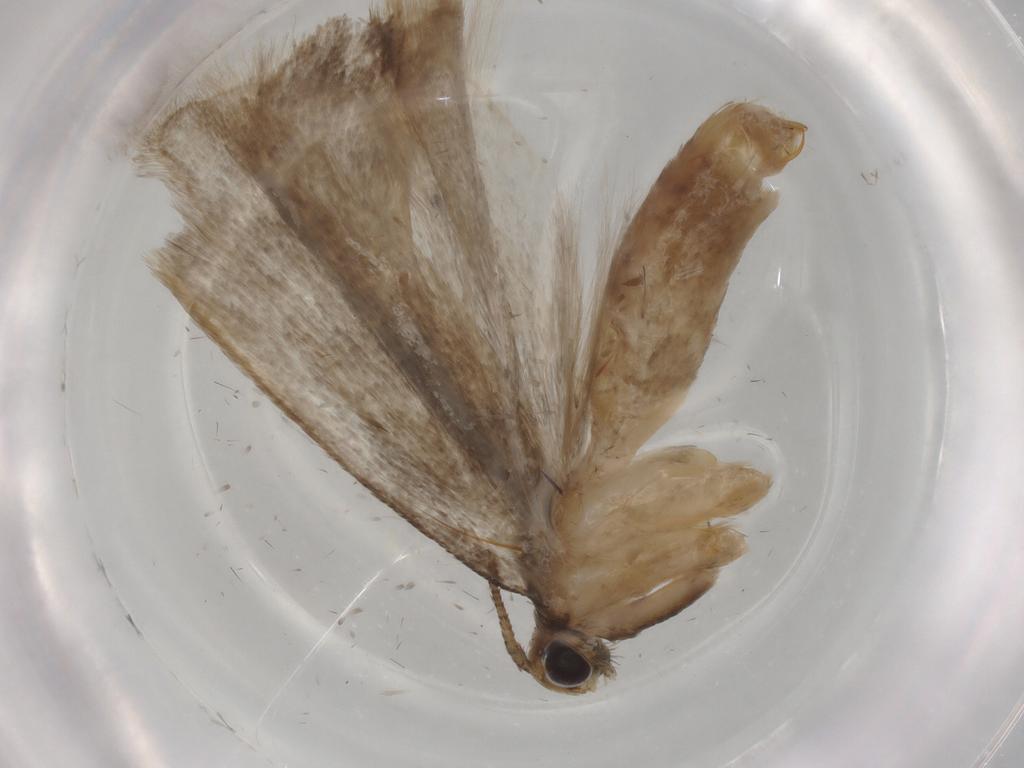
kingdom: Animalia
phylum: Arthropoda
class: Insecta
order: Lepidoptera
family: Gelechiidae
